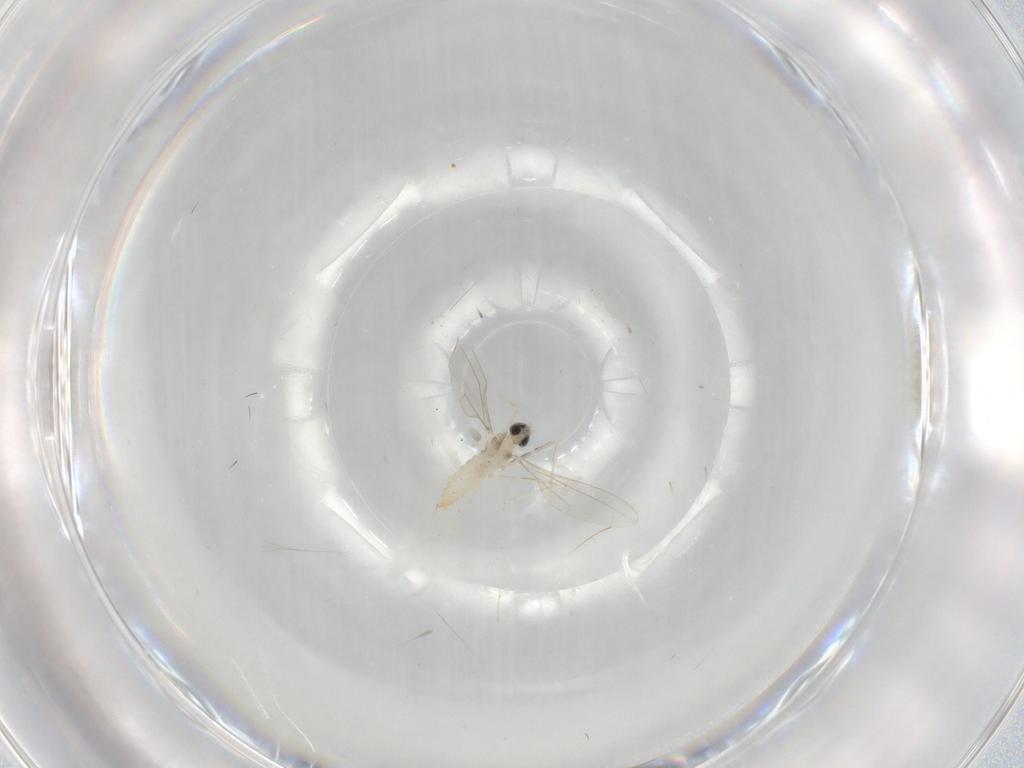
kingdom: Animalia
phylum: Arthropoda
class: Insecta
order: Diptera
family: Sciaridae
